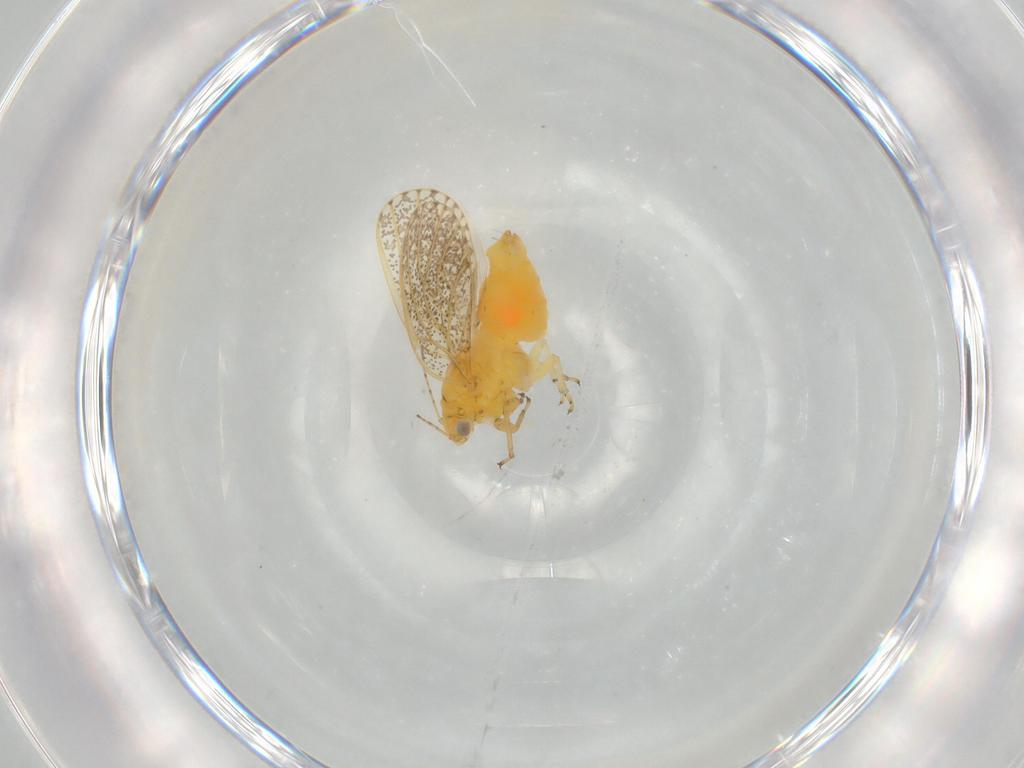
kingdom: Animalia
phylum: Arthropoda
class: Insecta
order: Hemiptera
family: Psyllidae
